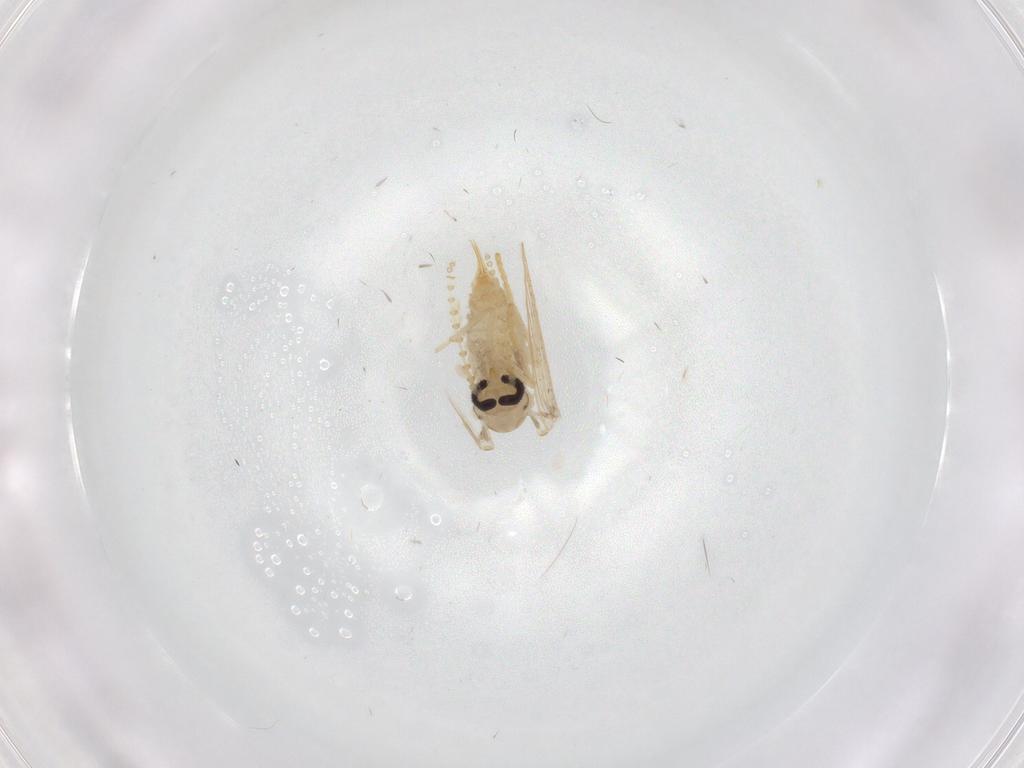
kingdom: Animalia
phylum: Arthropoda
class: Insecta
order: Diptera
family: Psychodidae
